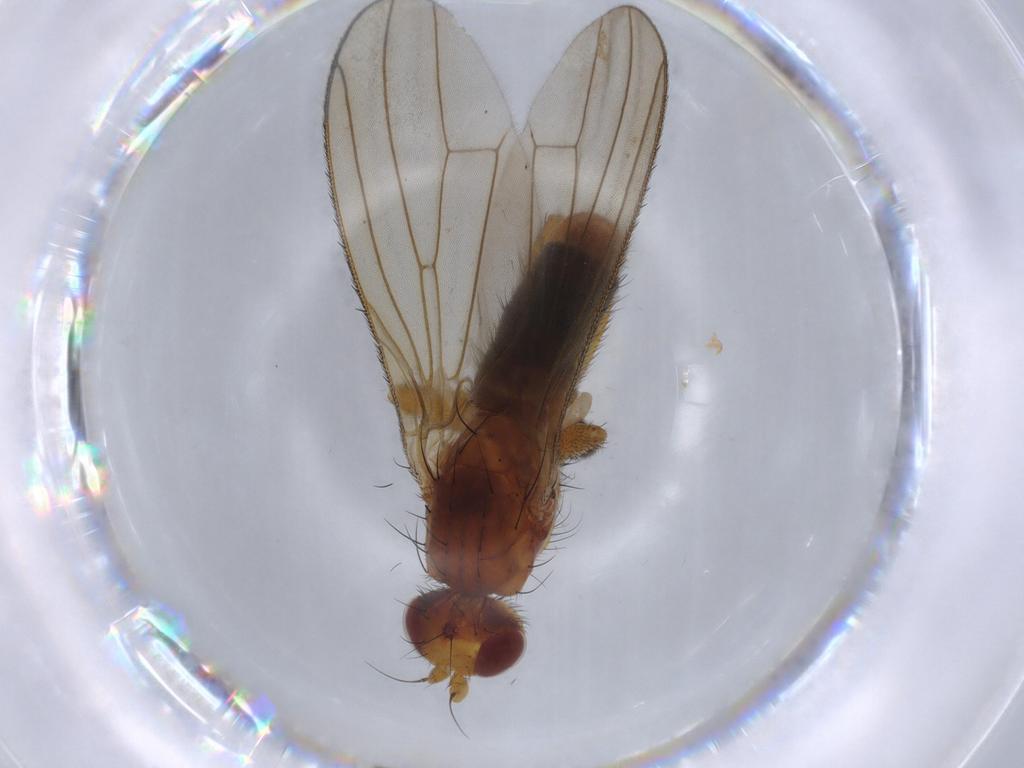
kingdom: Animalia
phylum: Arthropoda
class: Insecta
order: Diptera
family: Heleomyzidae
